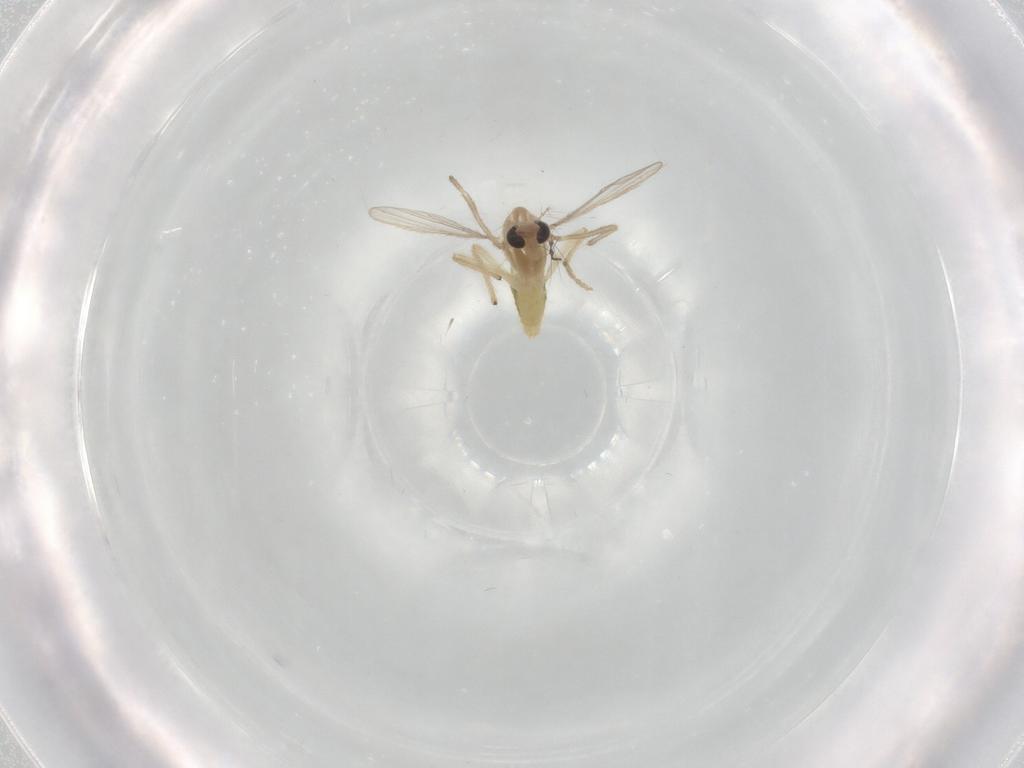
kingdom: Animalia
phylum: Arthropoda
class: Insecta
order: Diptera
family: Cecidomyiidae
